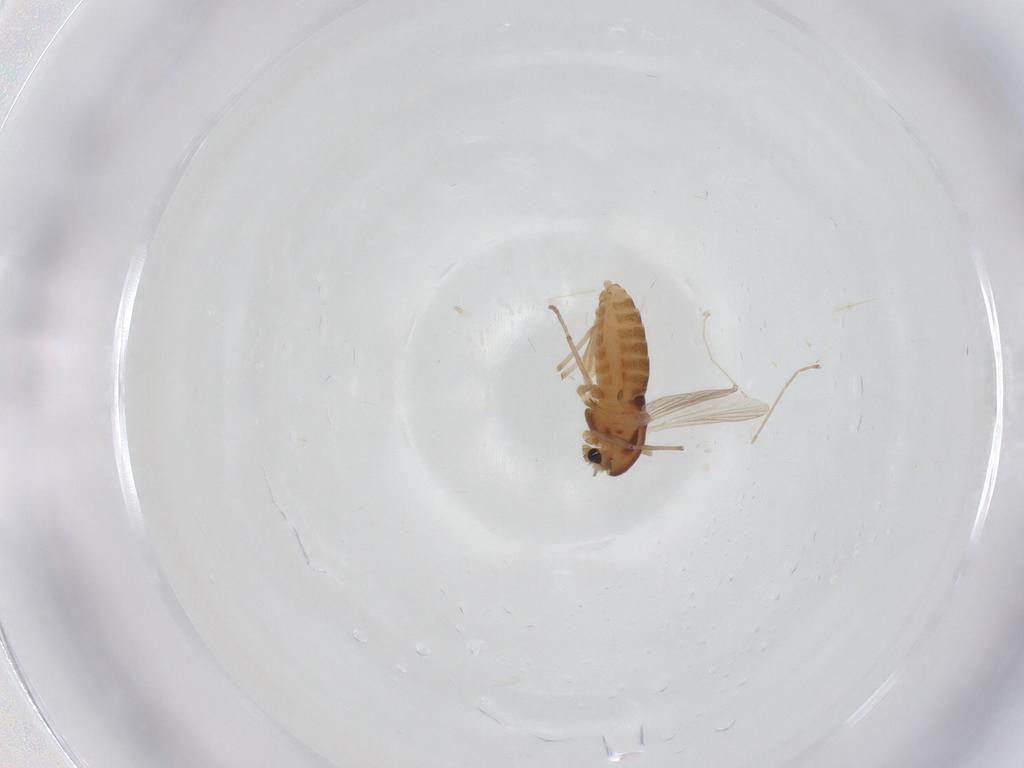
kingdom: Animalia
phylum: Arthropoda
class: Insecta
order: Diptera
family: Chironomidae
